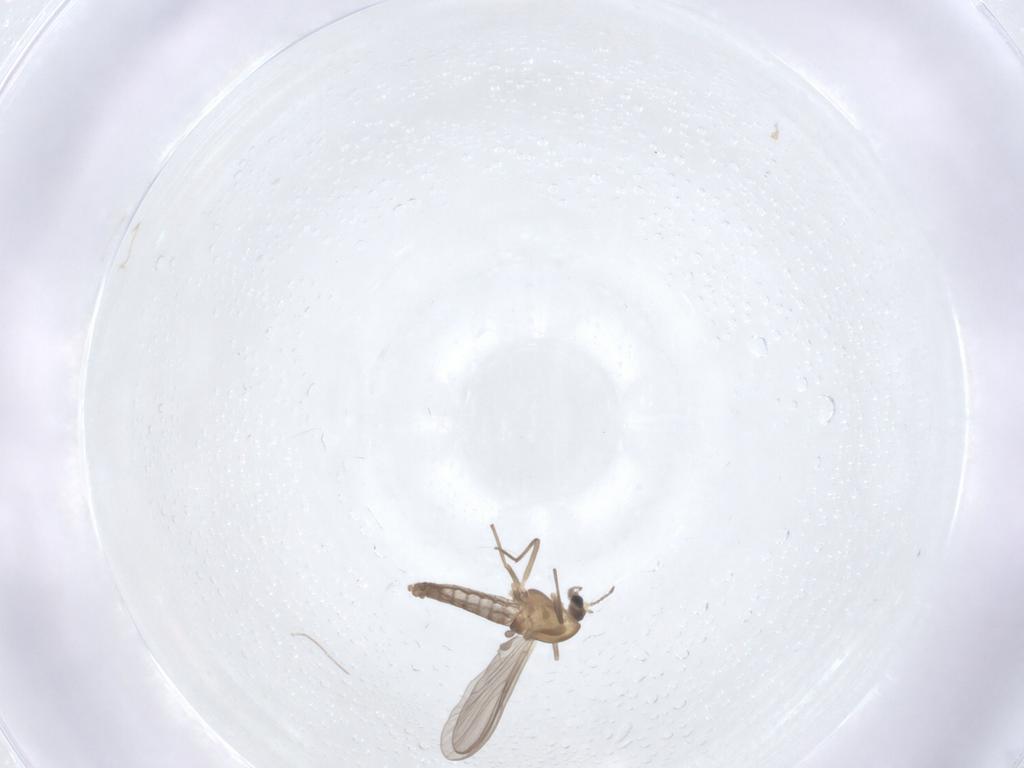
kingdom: Animalia
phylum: Arthropoda
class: Insecta
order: Diptera
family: Chironomidae
